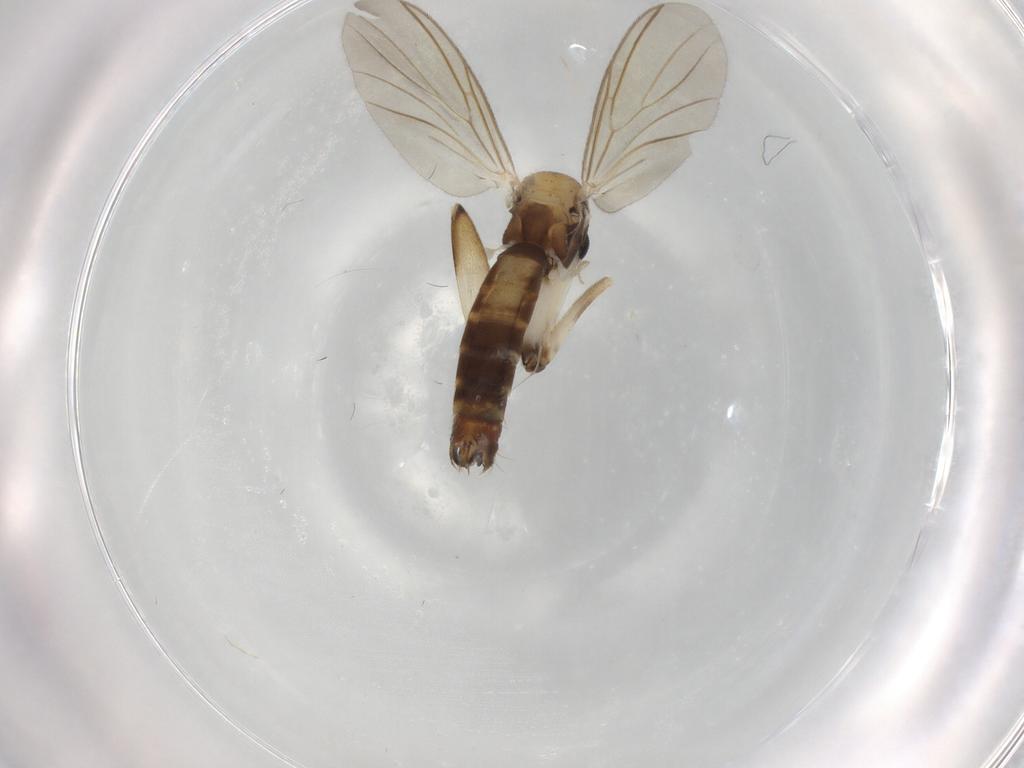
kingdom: Animalia
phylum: Arthropoda
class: Insecta
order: Diptera
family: Mycetophilidae
